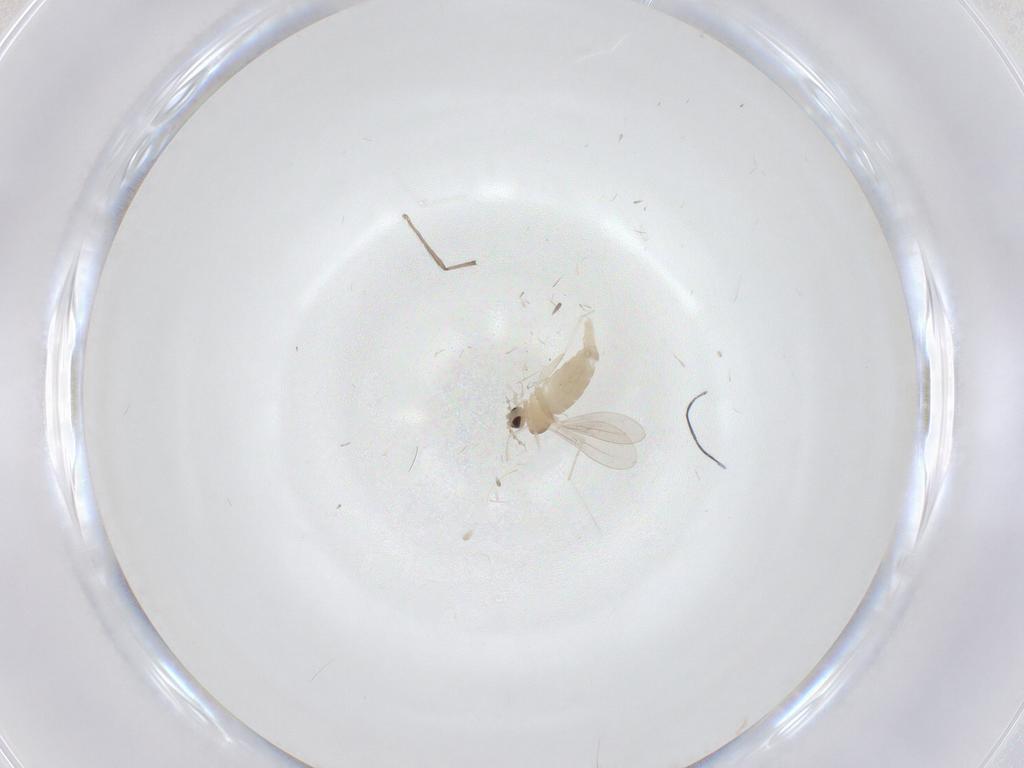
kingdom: Animalia
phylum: Arthropoda
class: Insecta
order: Diptera
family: Cecidomyiidae
